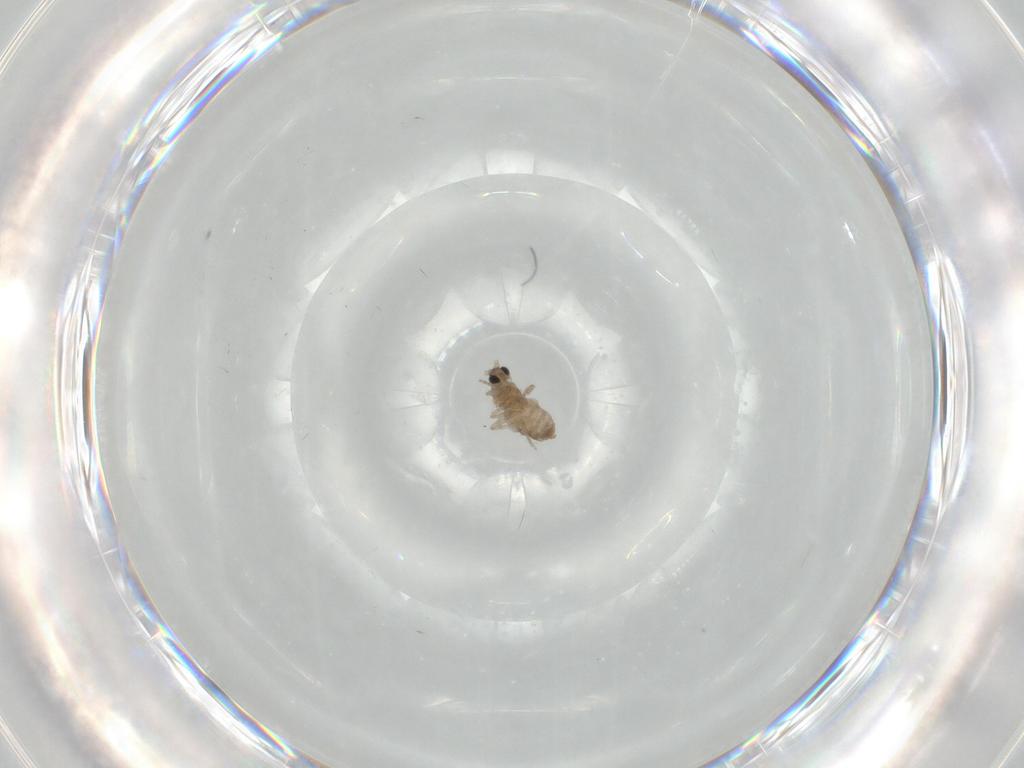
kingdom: Animalia
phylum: Arthropoda
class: Insecta
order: Diptera
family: Cecidomyiidae
